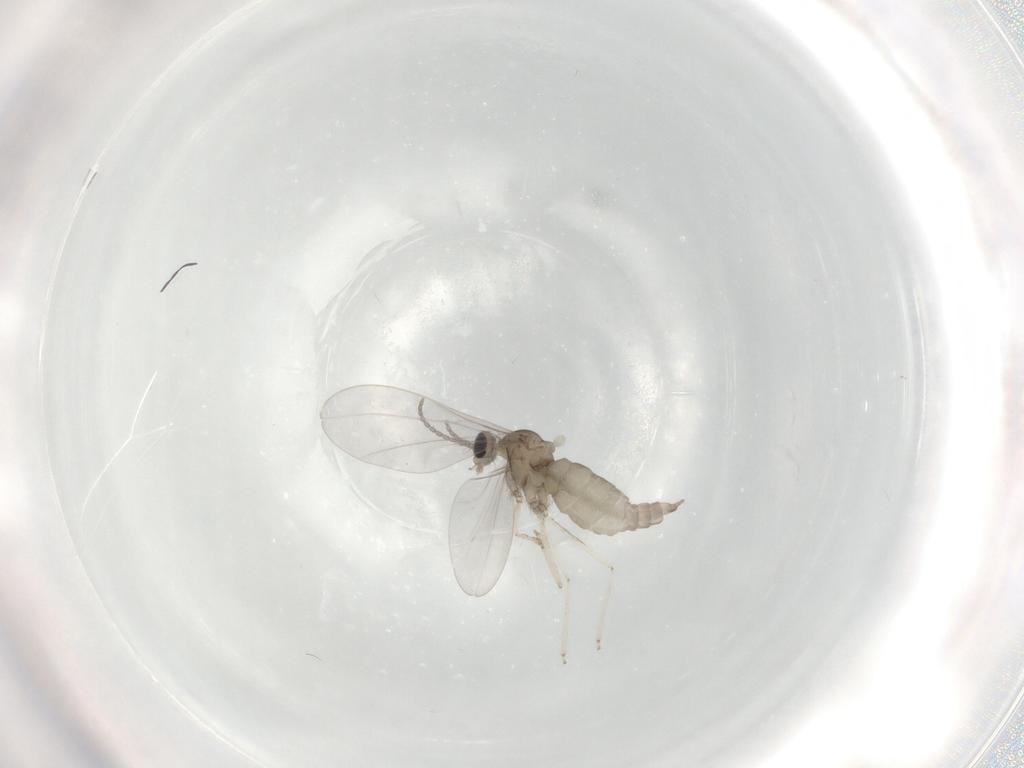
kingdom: Animalia
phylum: Arthropoda
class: Insecta
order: Diptera
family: Cecidomyiidae
